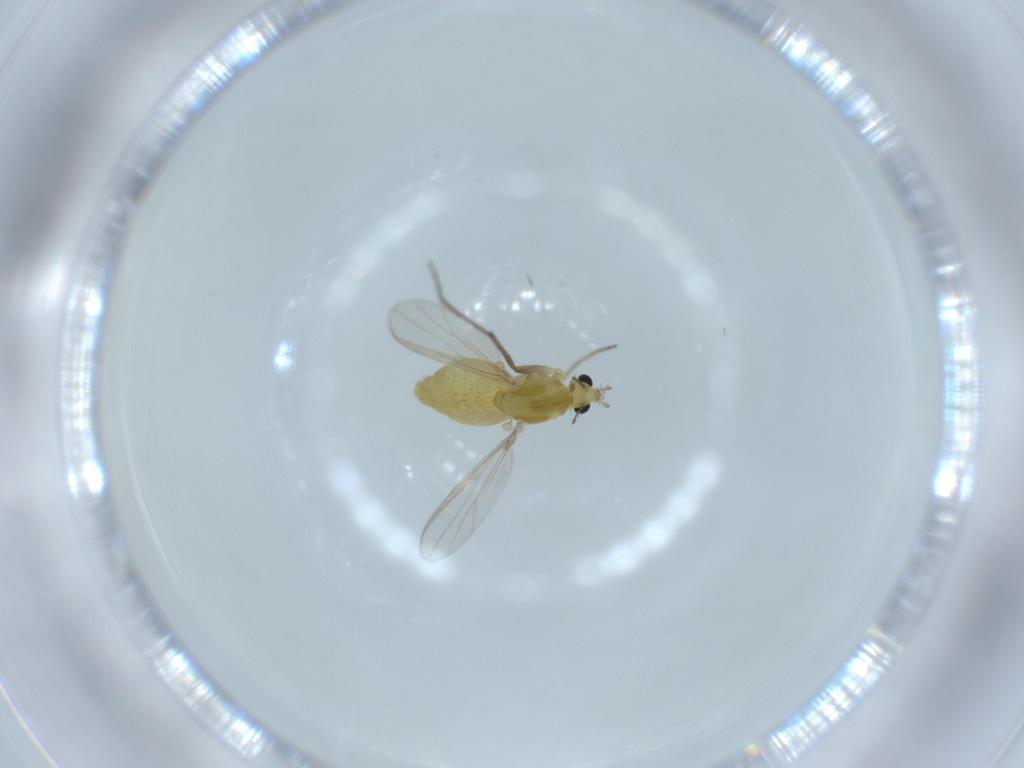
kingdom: Animalia
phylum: Arthropoda
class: Insecta
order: Diptera
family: Chironomidae
